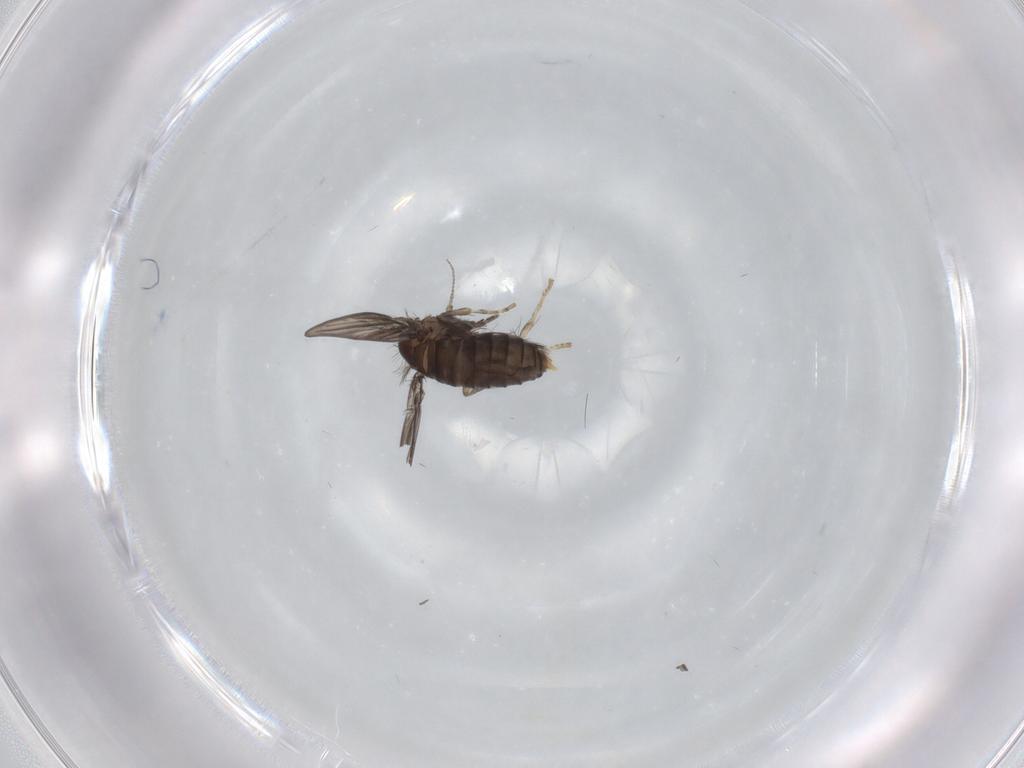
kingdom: Animalia
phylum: Arthropoda
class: Insecta
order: Diptera
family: Psychodidae
